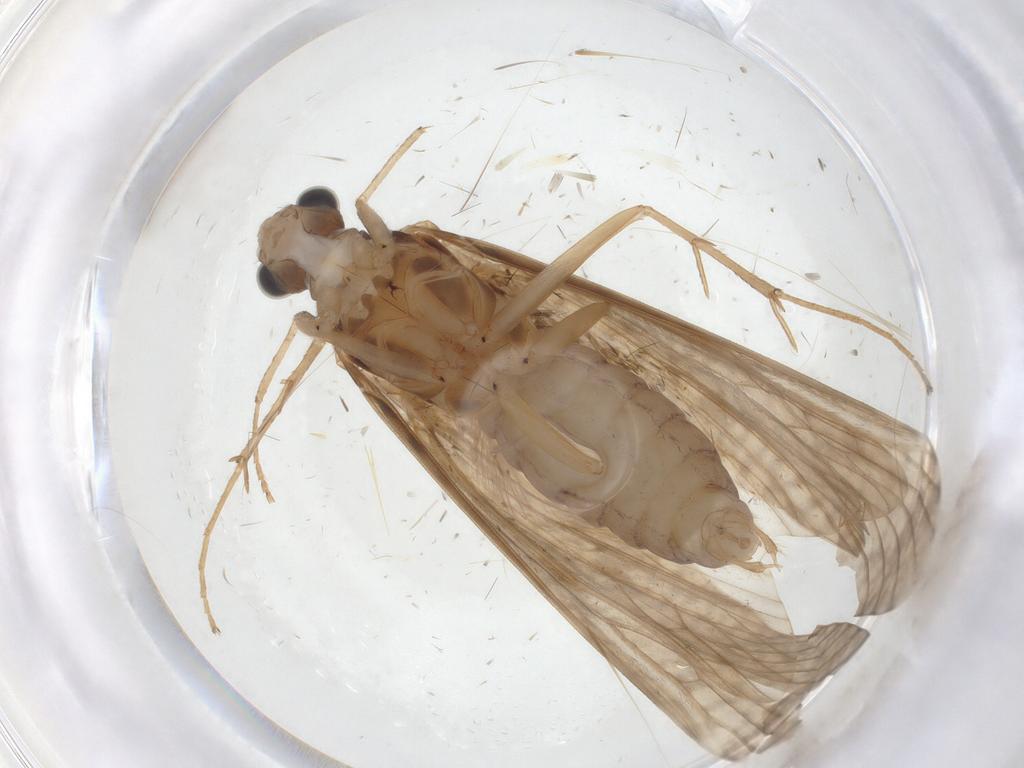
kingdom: Animalia
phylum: Arthropoda
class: Insecta
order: Trichoptera
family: Hydropsychidae
